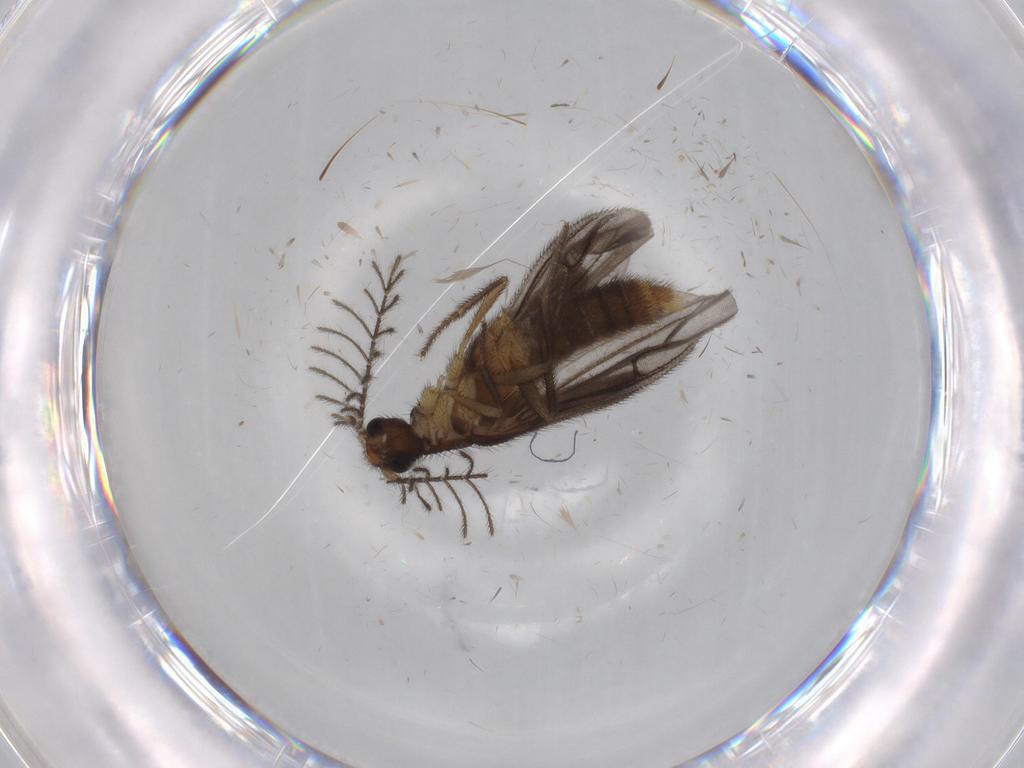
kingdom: Animalia
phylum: Arthropoda
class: Insecta
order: Coleoptera
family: Phengodidae
